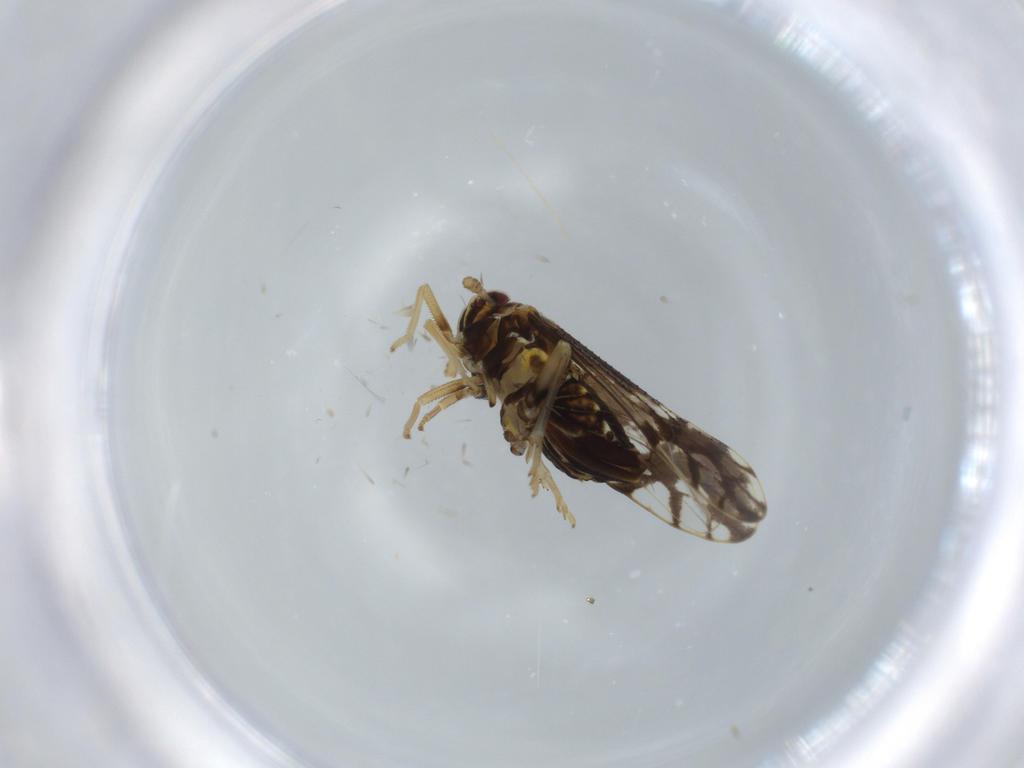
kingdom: Animalia
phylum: Arthropoda
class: Insecta
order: Hemiptera
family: Delphacidae
